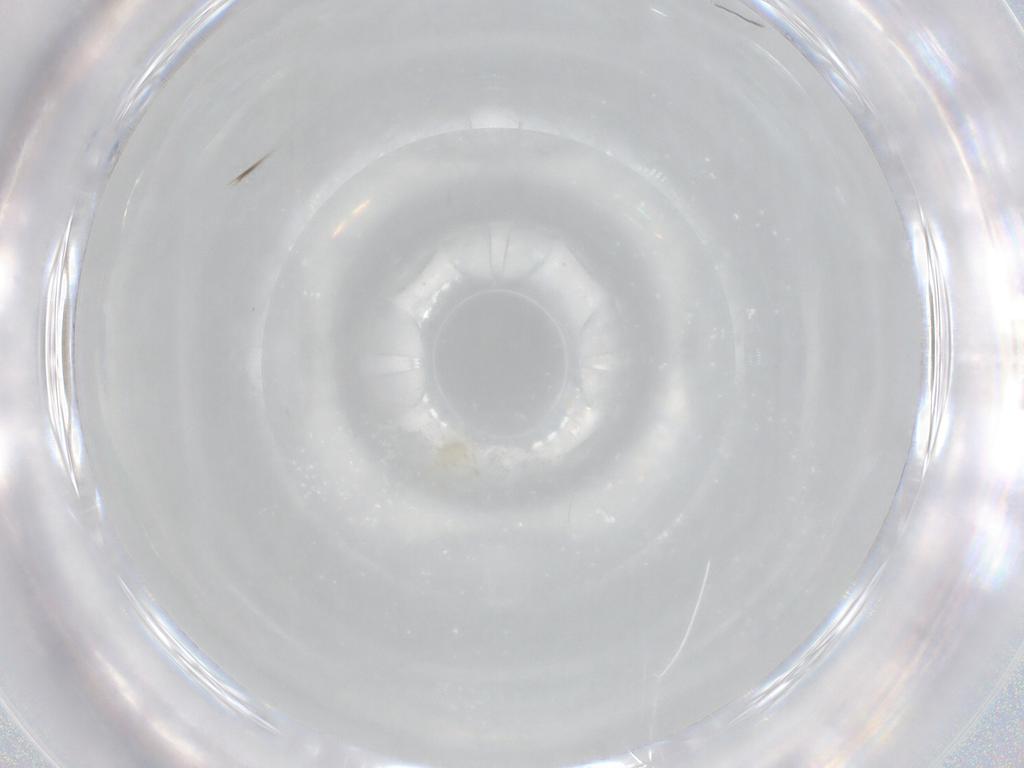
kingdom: Animalia
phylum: Arthropoda
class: Arachnida
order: Trombidiformes
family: Erythraeidae
